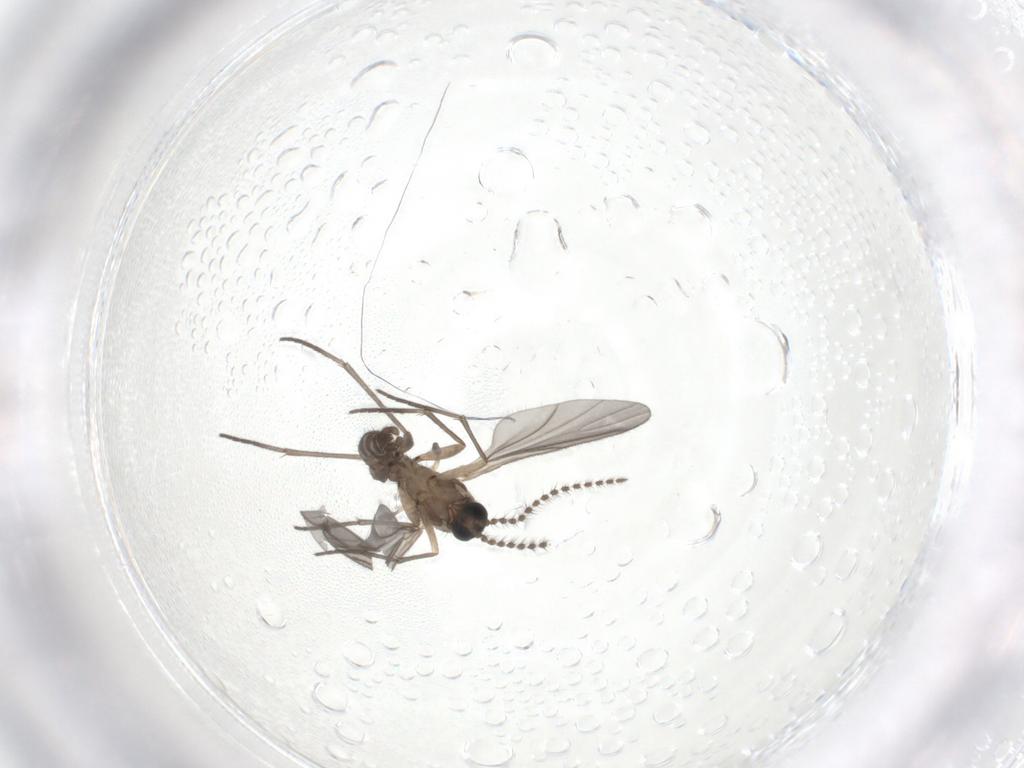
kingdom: Animalia
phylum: Arthropoda
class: Insecta
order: Diptera
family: Sciaridae
